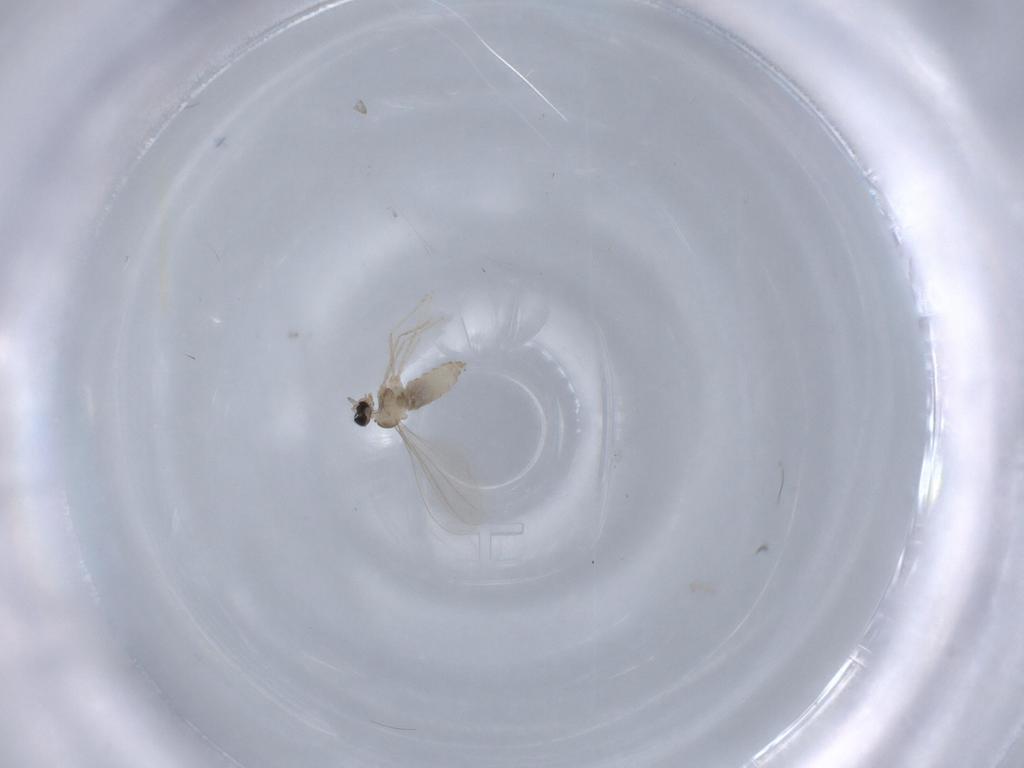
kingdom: Animalia
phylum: Arthropoda
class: Insecta
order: Diptera
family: Cecidomyiidae
